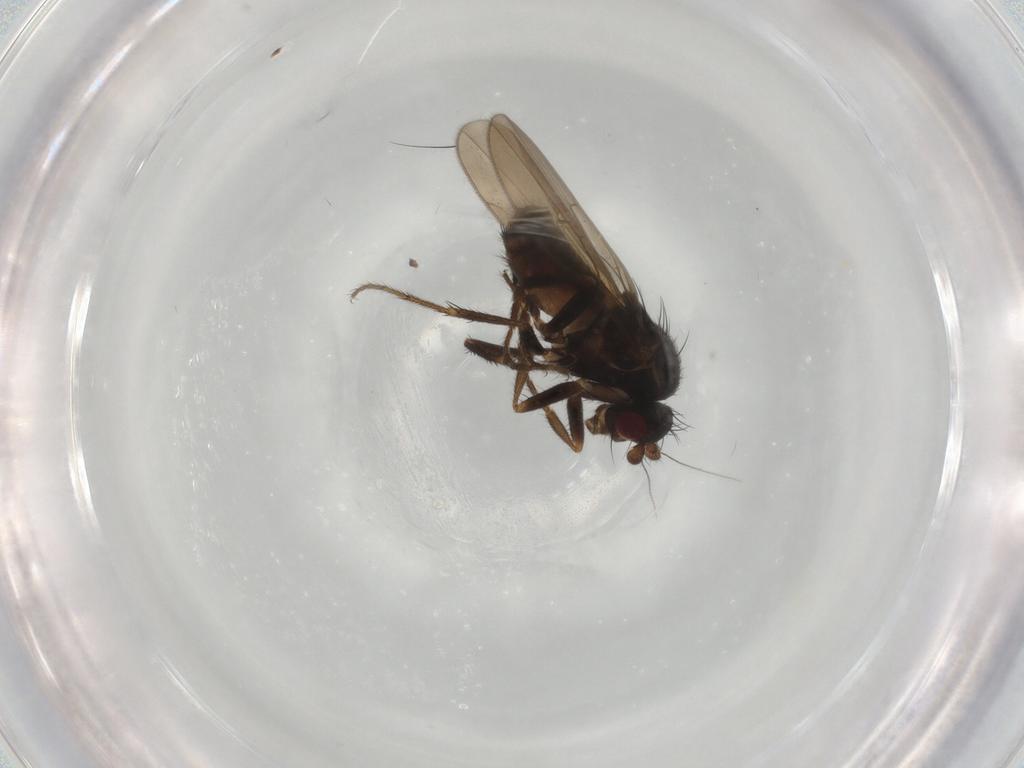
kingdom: Animalia
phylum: Arthropoda
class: Insecta
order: Diptera
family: Sphaeroceridae
